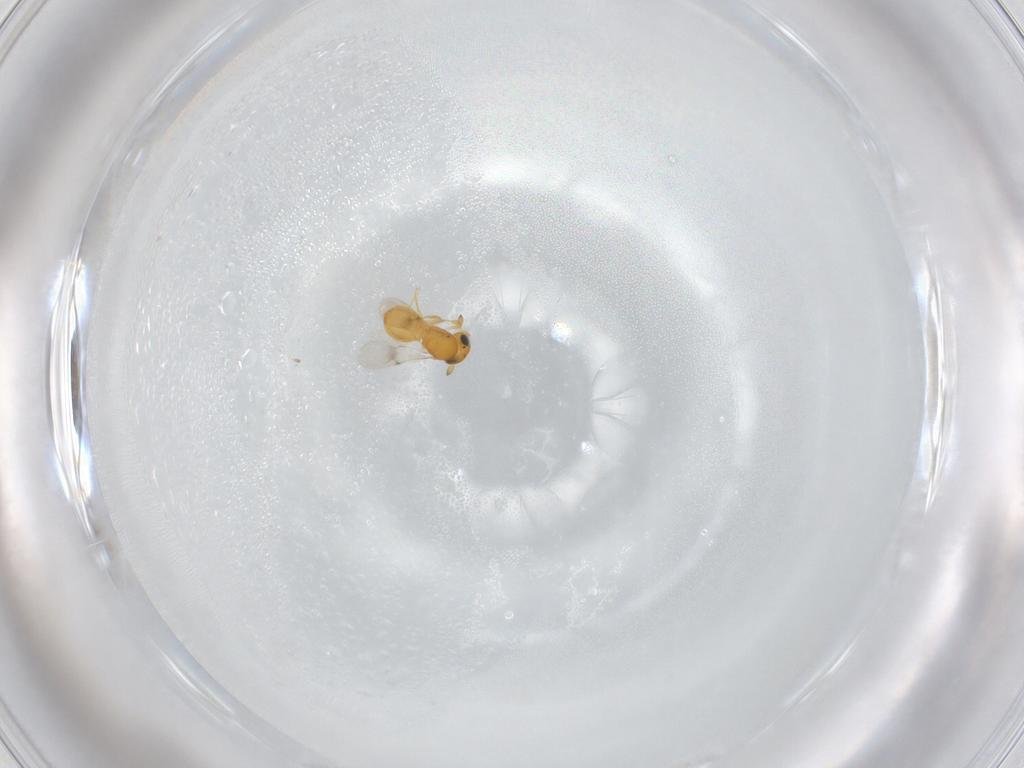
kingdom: Animalia
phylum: Arthropoda
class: Insecta
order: Hymenoptera
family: Scelionidae
